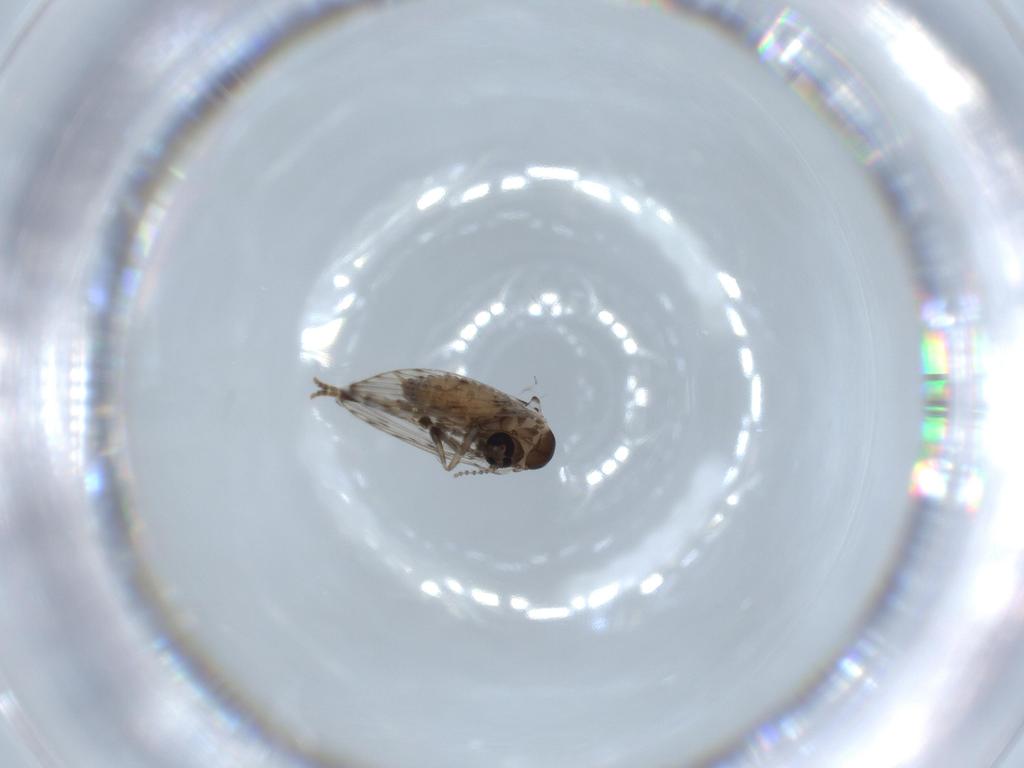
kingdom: Animalia
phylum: Arthropoda
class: Insecta
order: Diptera
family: Psychodidae
